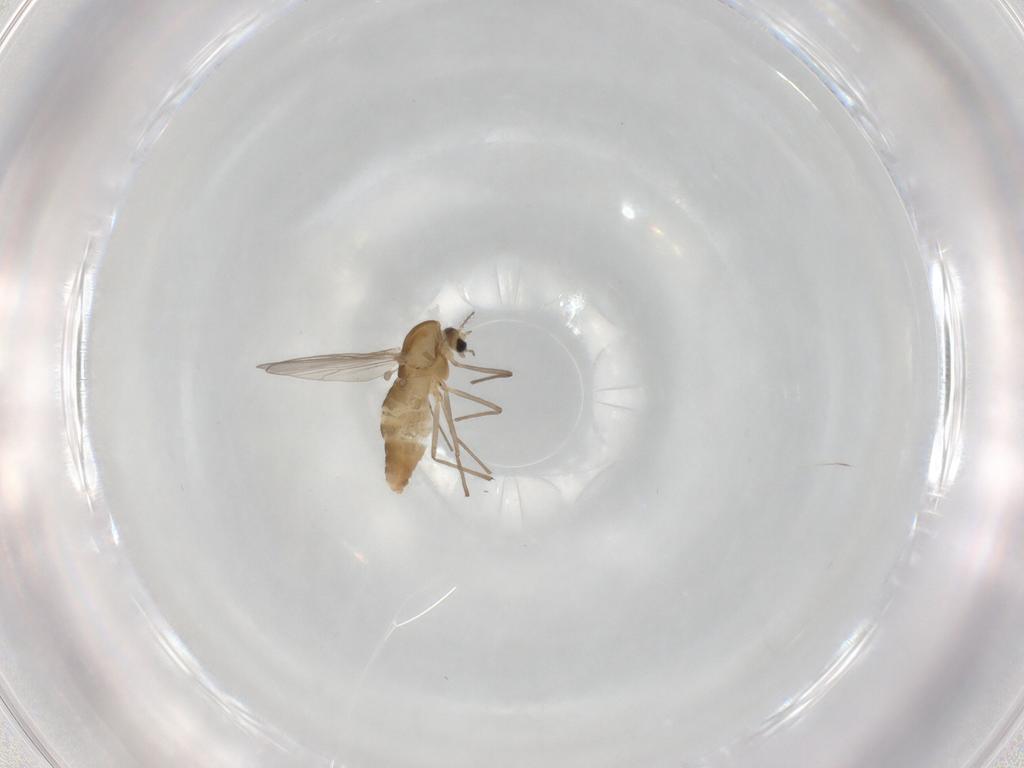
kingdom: Animalia
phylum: Arthropoda
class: Insecta
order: Diptera
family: Chironomidae
